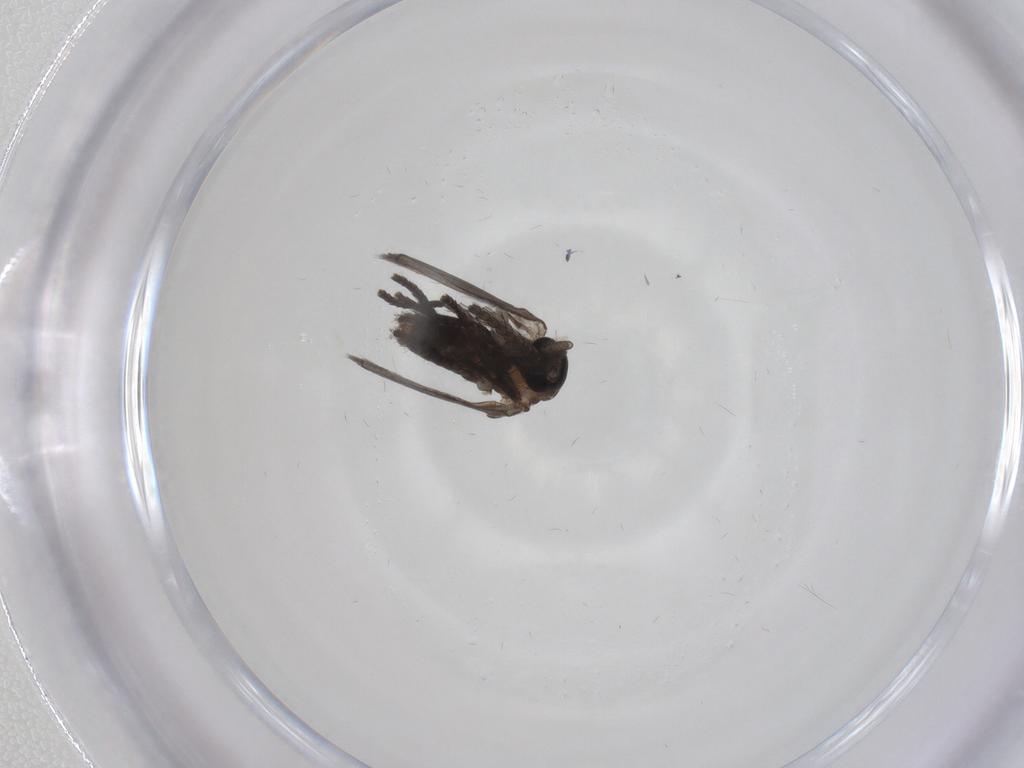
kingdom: Animalia
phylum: Arthropoda
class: Insecta
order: Diptera
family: Psychodidae
